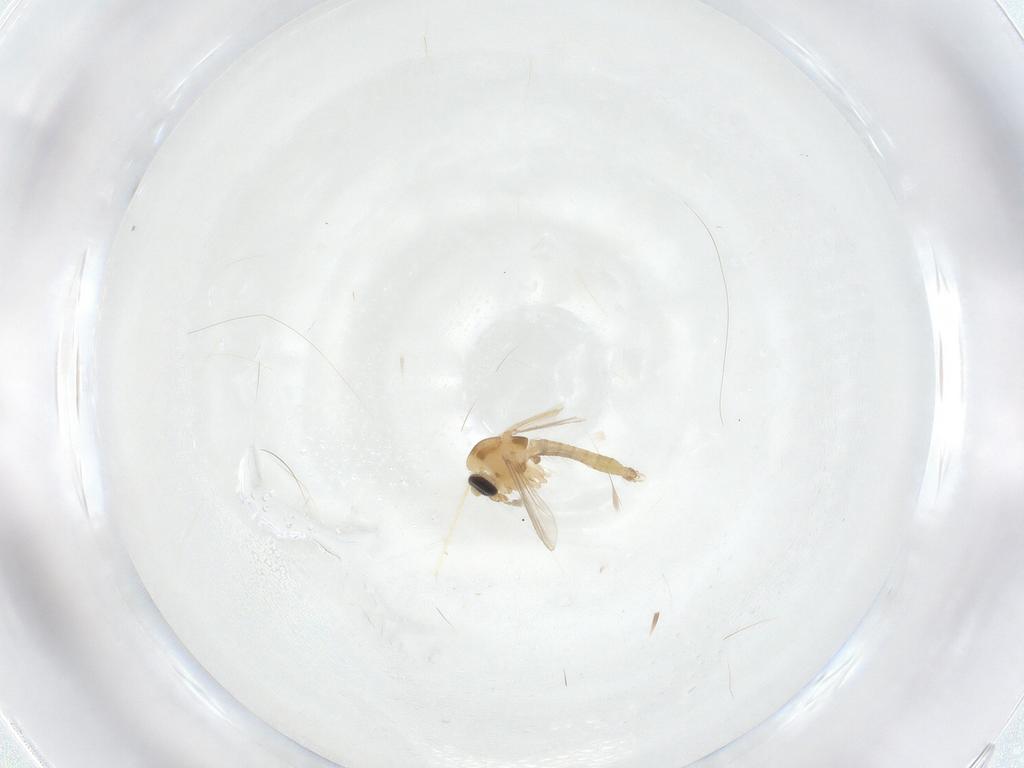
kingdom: Animalia
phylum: Arthropoda
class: Insecta
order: Diptera
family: Chironomidae
